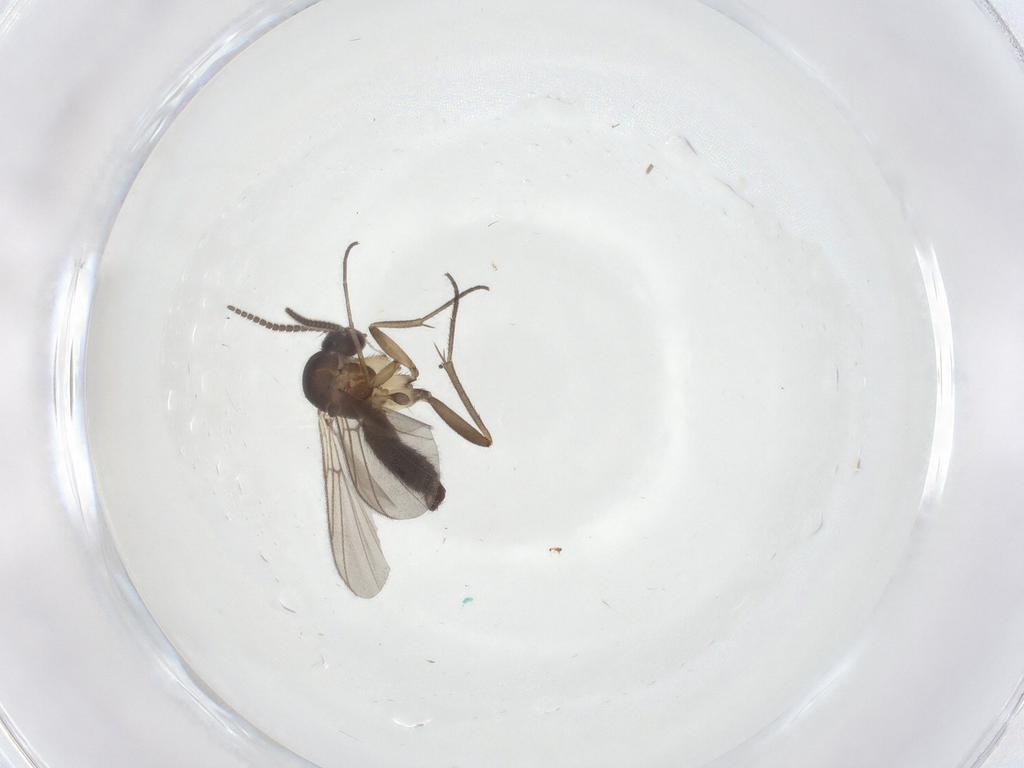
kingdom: Animalia
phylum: Arthropoda
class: Insecta
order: Diptera
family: Mycetophilidae
